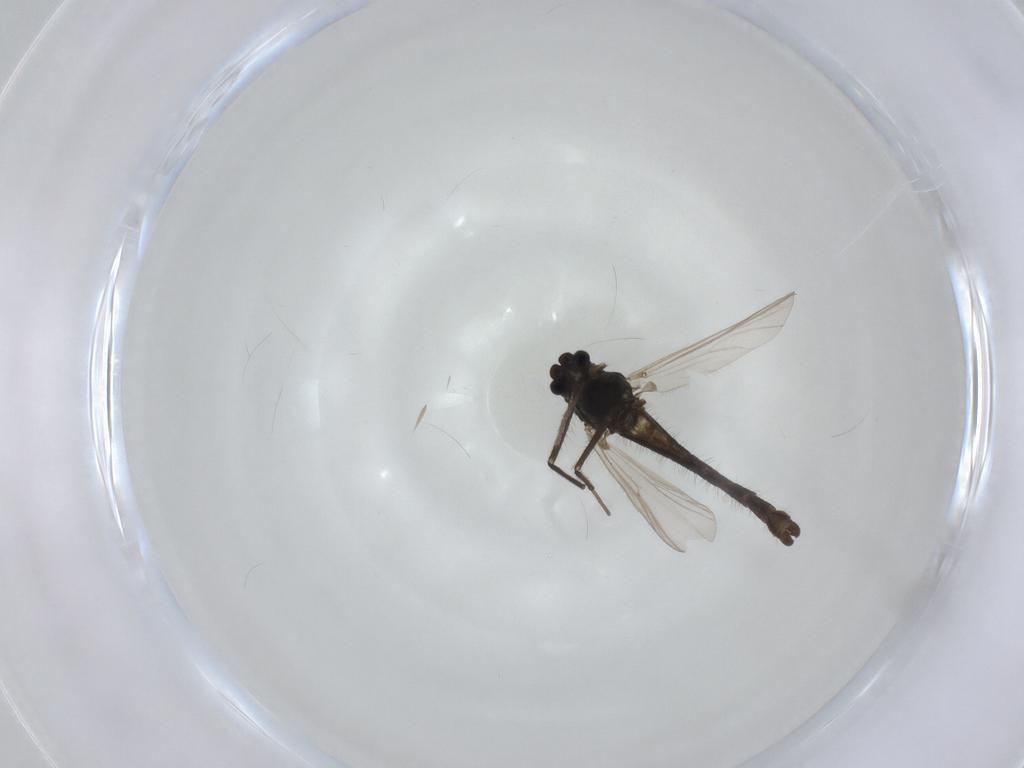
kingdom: Animalia
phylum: Arthropoda
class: Insecta
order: Diptera
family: Chironomidae
